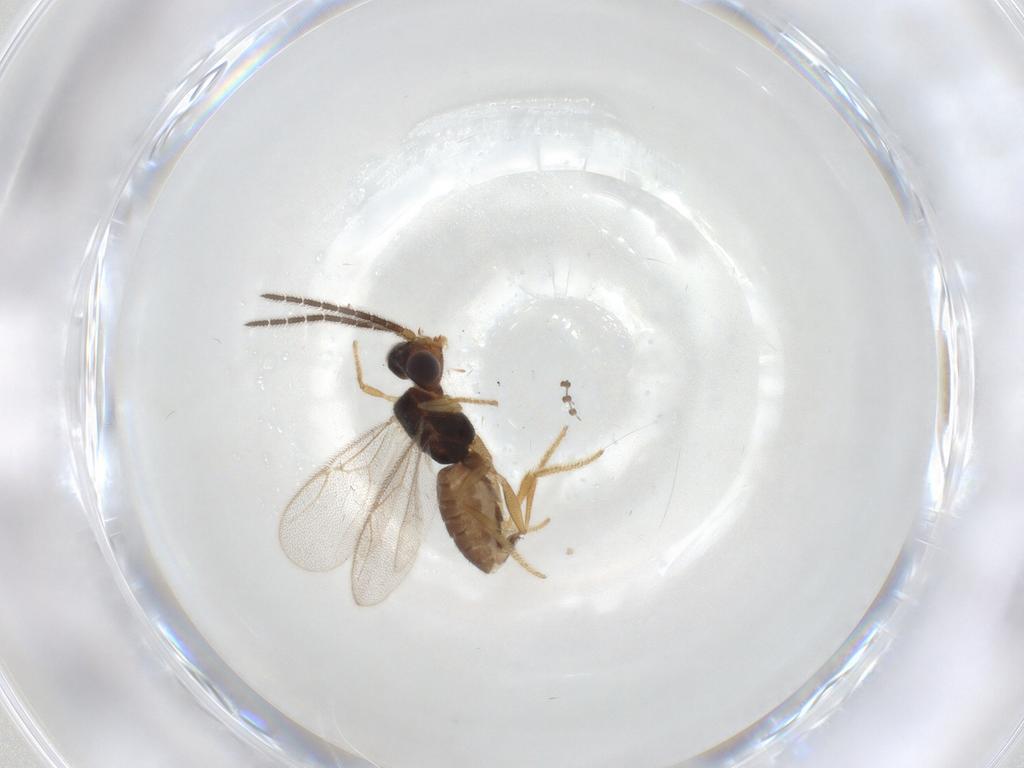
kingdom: Animalia
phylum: Arthropoda
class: Insecta
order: Hymenoptera
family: Dryinidae
